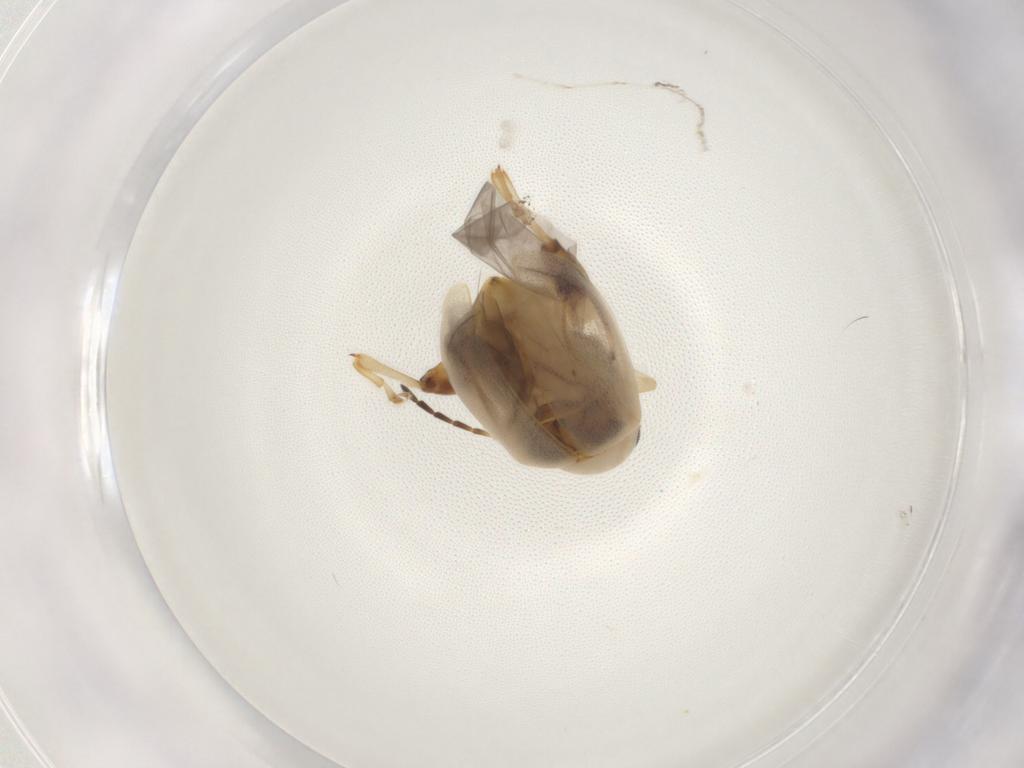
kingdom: Animalia
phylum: Arthropoda
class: Insecta
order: Coleoptera
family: Chrysomelidae
